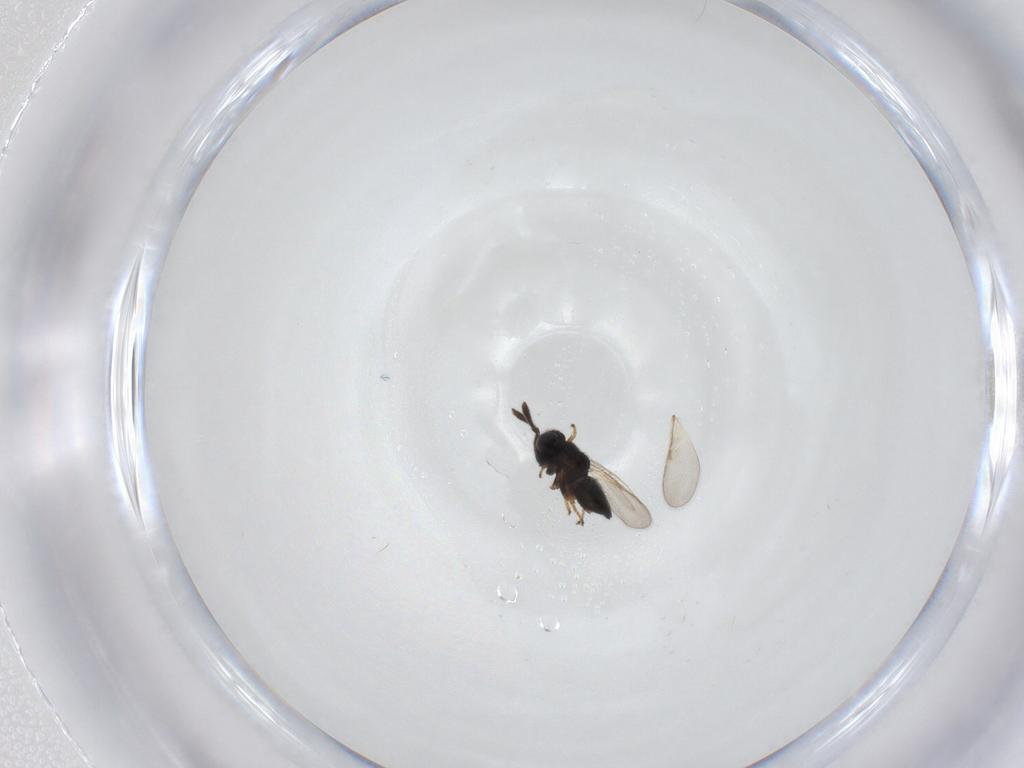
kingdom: Animalia
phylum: Arthropoda
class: Insecta
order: Hymenoptera
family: Encyrtidae
